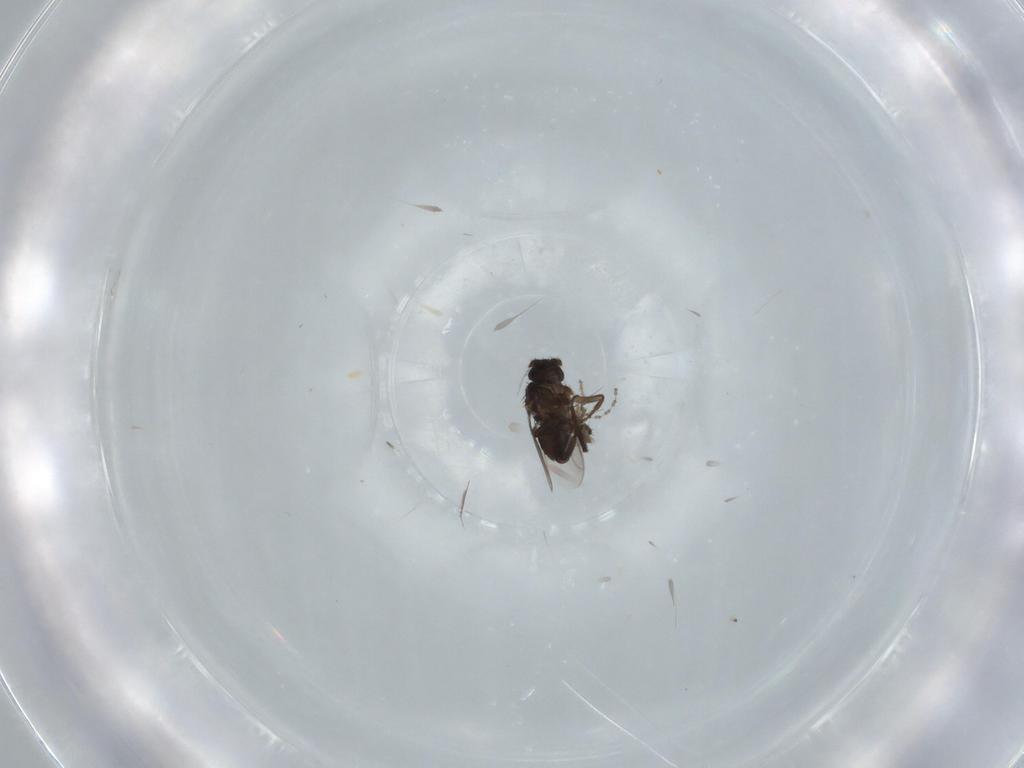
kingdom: Animalia
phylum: Arthropoda
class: Insecta
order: Diptera
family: Cecidomyiidae
